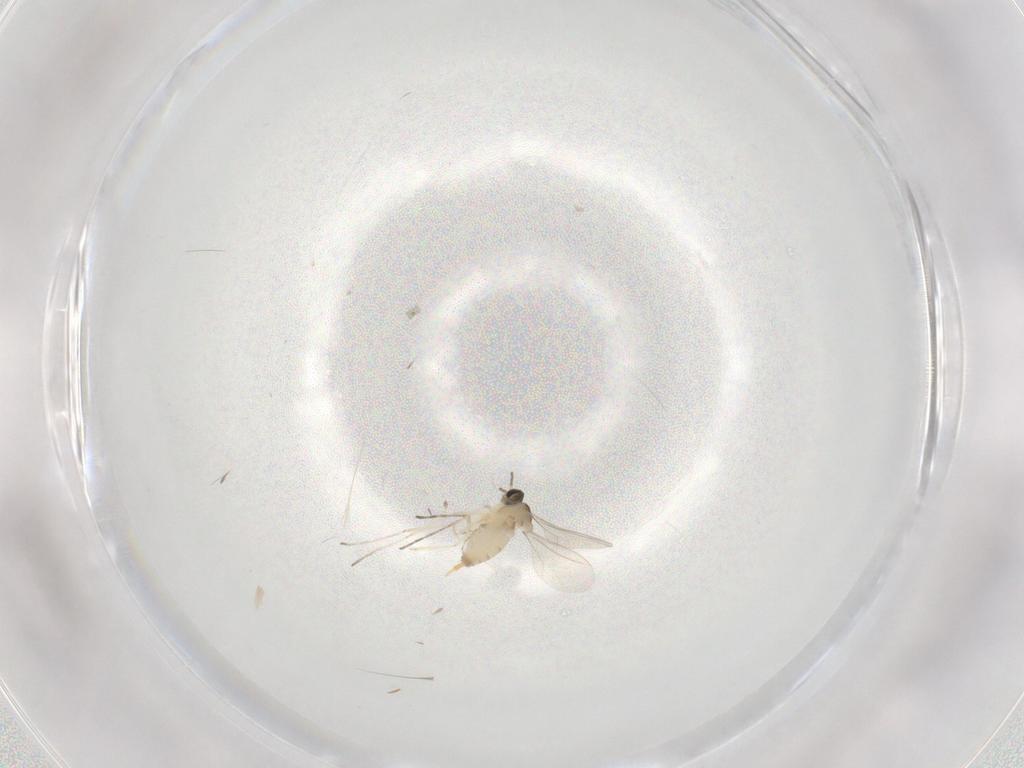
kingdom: Animalia
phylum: Arthropoda
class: Insecta
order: Diptera
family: Cecidomyiidae
